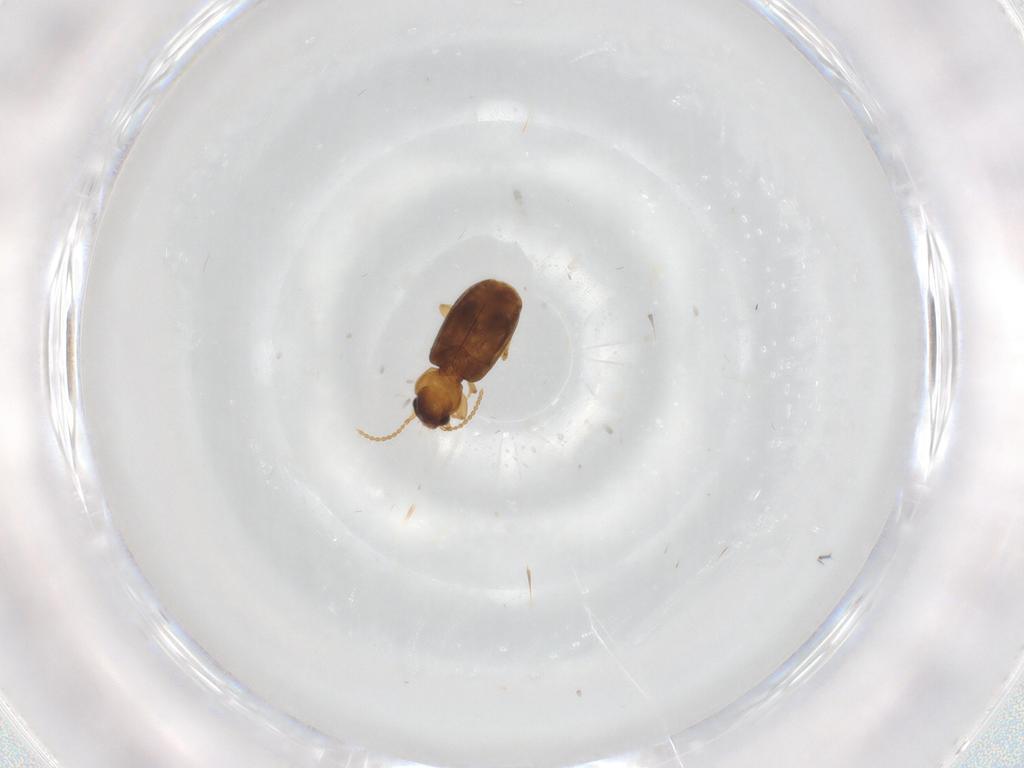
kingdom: Animalia
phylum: Arthropoda
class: Insecta
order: Coleoptera
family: Carabidae
